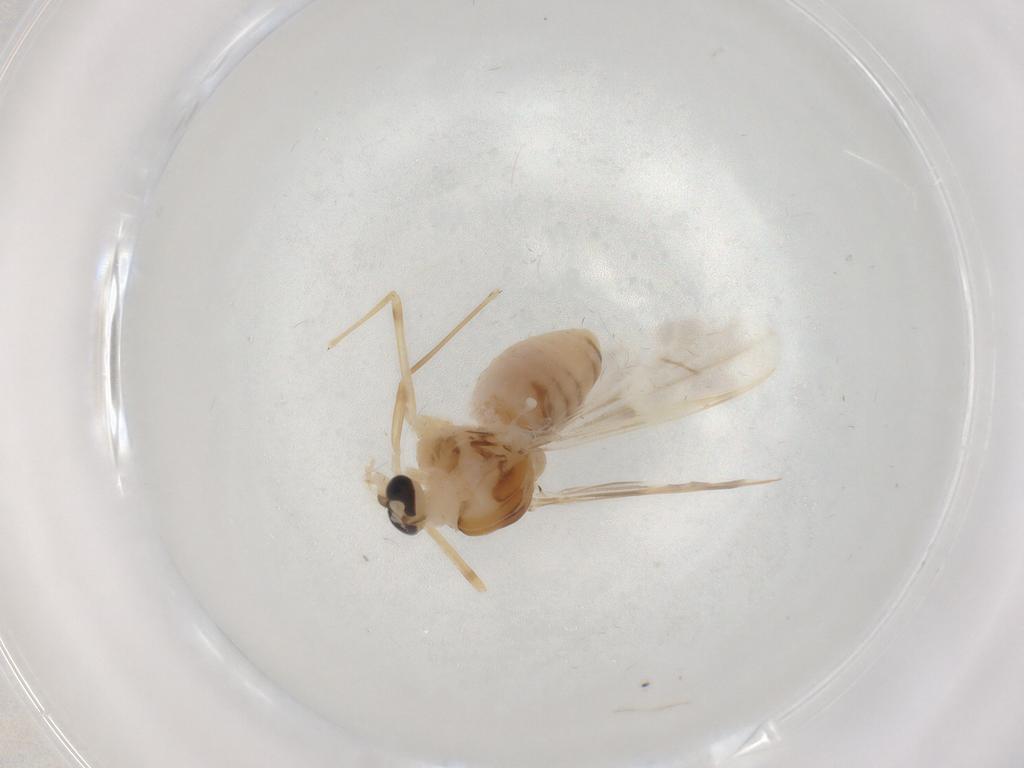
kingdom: Animalia
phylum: Arthropoda
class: Insecta
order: Diptera
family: Chironomidae
